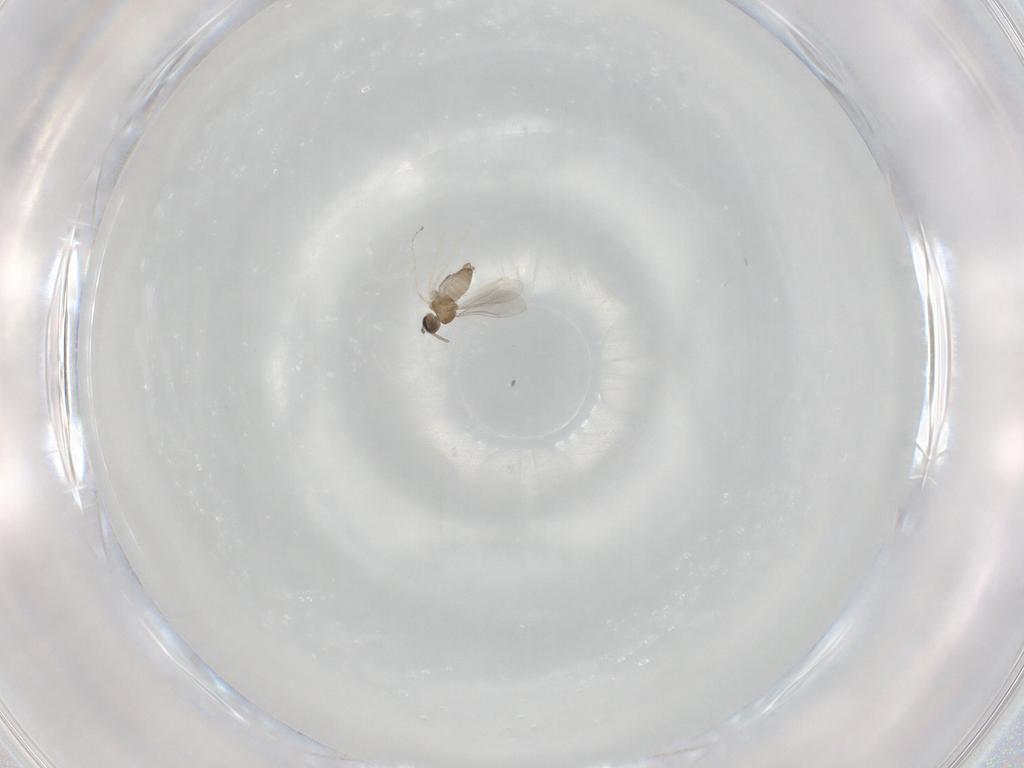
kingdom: Animalia
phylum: Arthropoda
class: Insecta
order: Diptera
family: Cecidomyiidae
